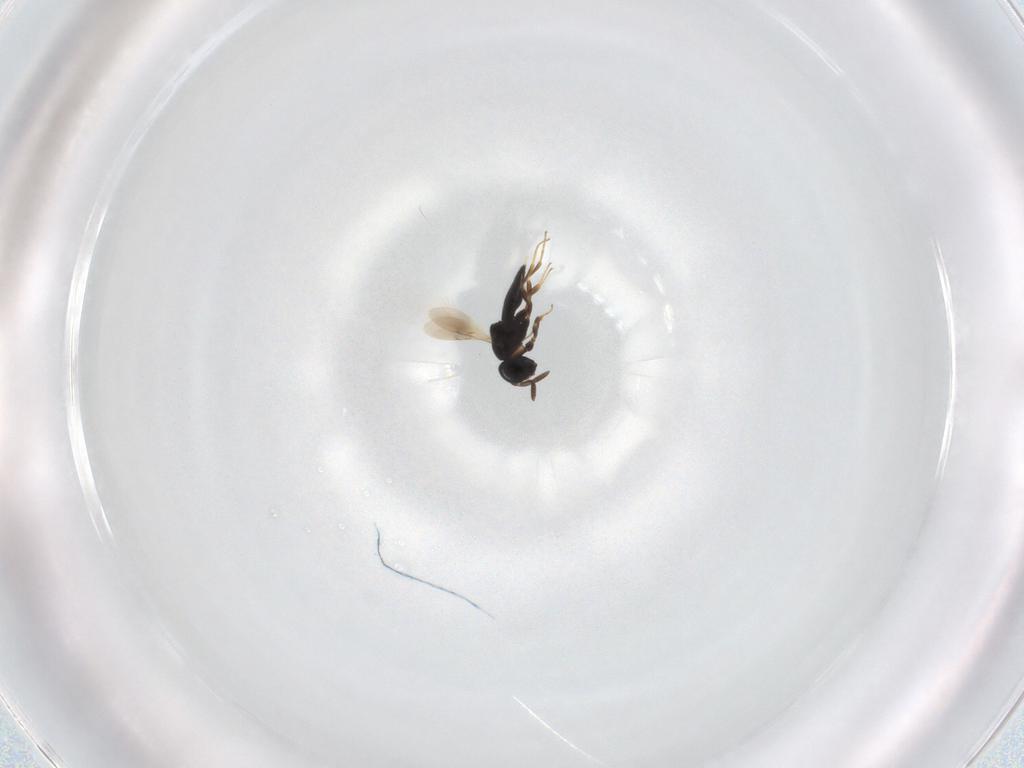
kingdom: Animalia
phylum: Arthropoda
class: Insecta
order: Hymenoptera
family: Scelionidae
